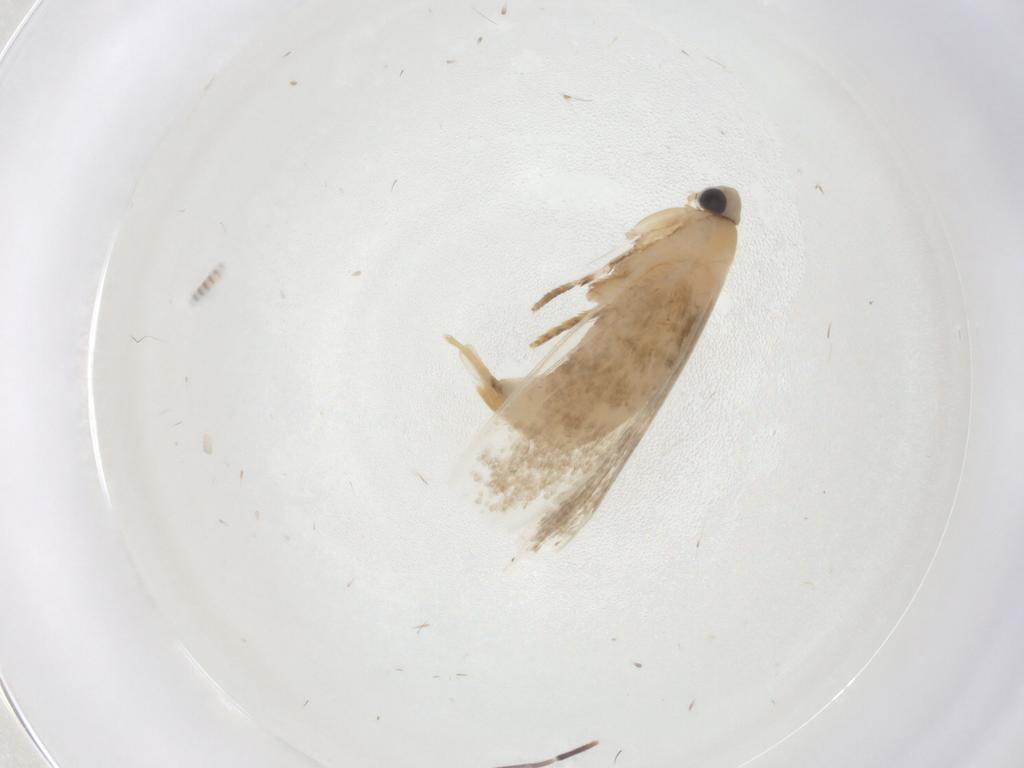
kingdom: Animalia
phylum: Arthropoda
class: Insecta
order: Lepidoptera
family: Tineidae
